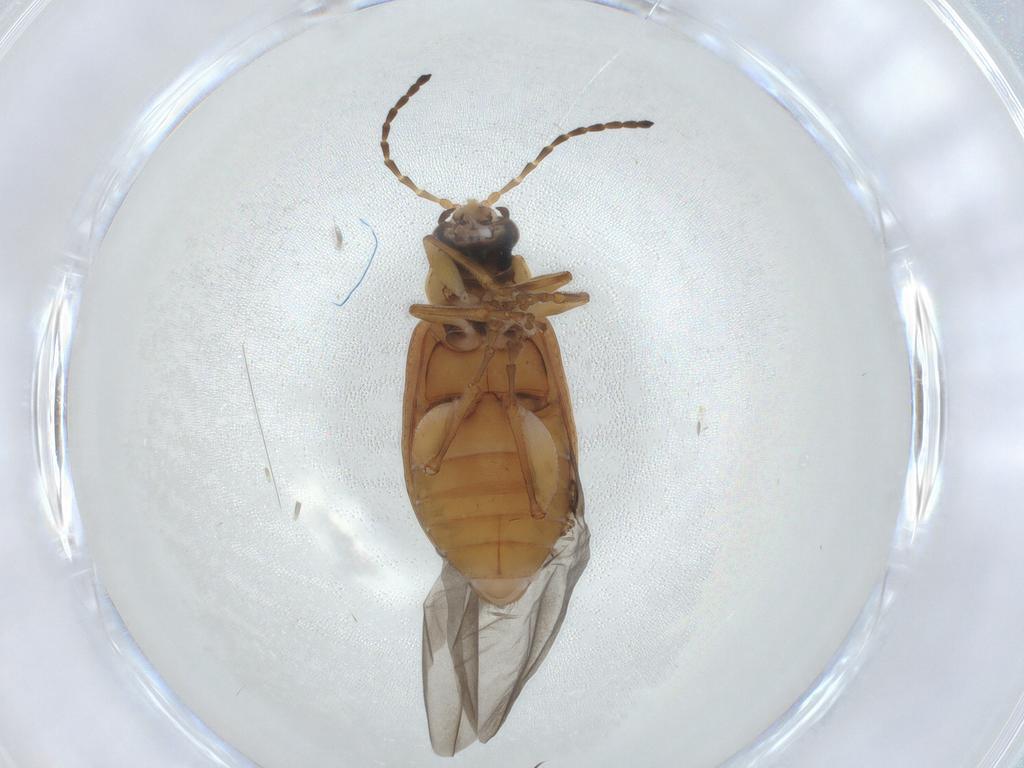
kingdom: Animalia
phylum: Arthropoda
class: Insecta
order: Coleoptera
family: Chrysomelidae
